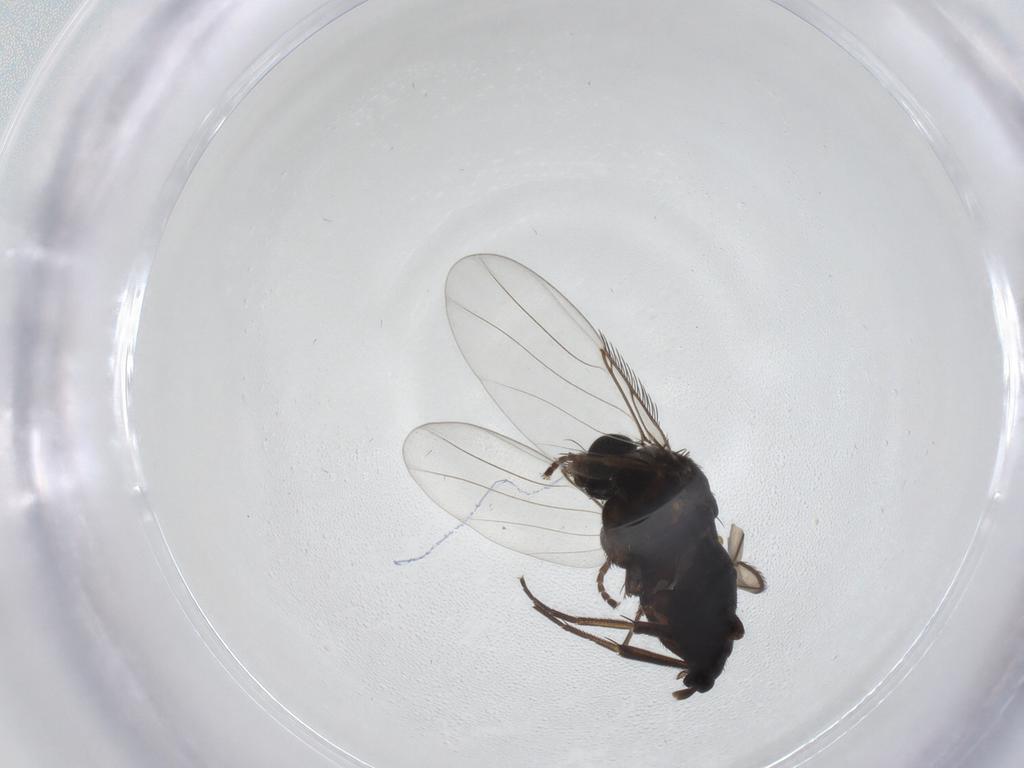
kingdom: Animalia
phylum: Arthropoda
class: Insecta
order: Diptera
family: Phoridae
